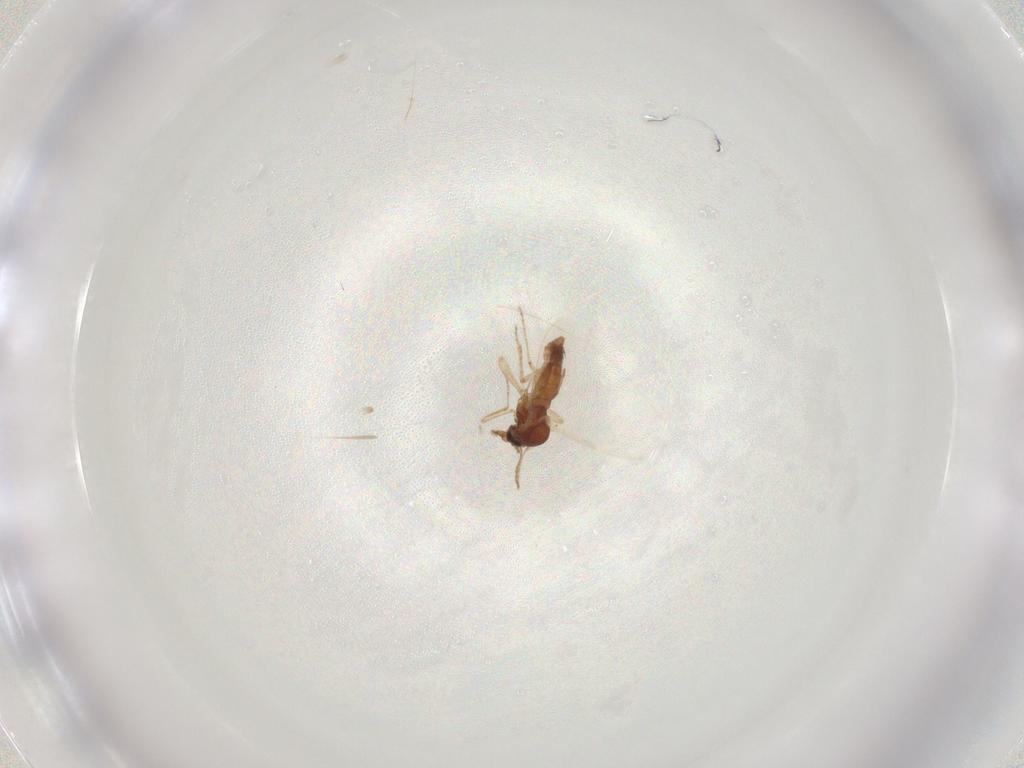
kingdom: Animalia
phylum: Arthropoda
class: Insecta
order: Diptera
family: Ceratopogonidae
